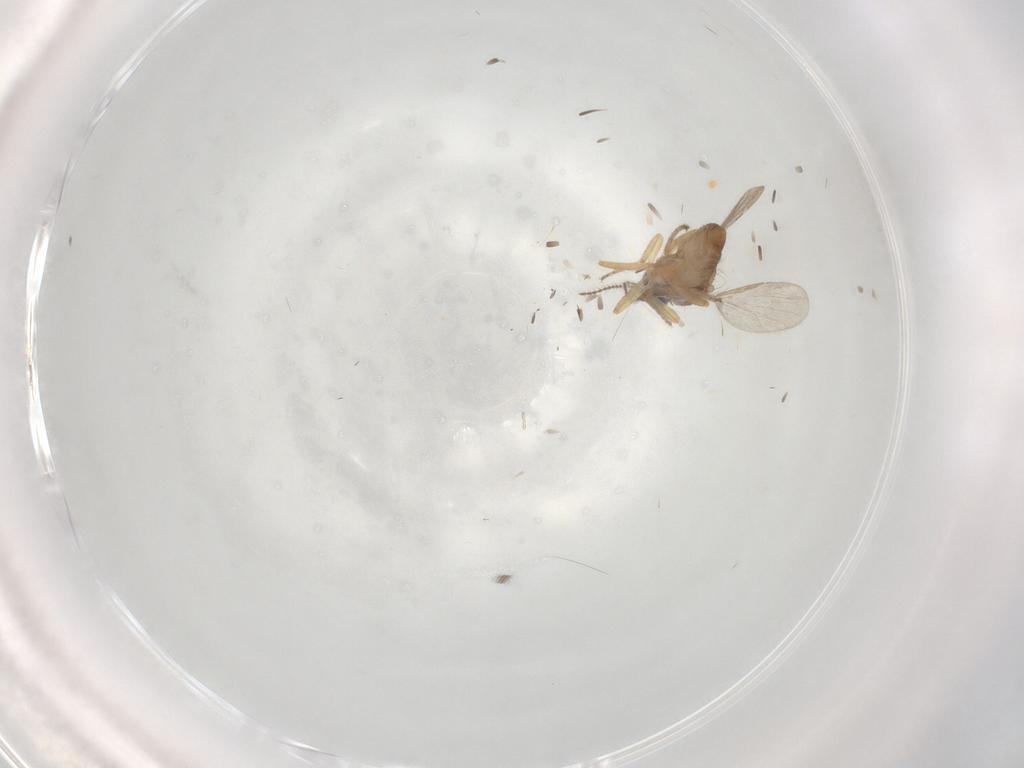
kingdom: Animalia
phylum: Arthropoda
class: Insecta
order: Diptera
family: Ceratopogonidae
